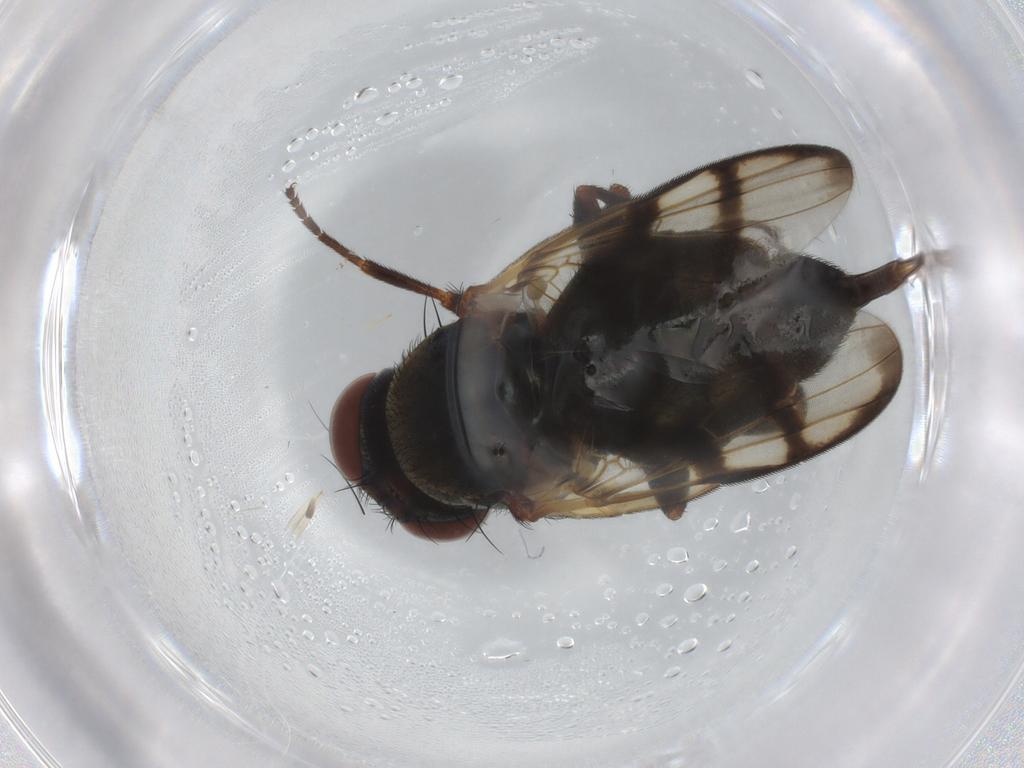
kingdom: Animalia
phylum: Arthropoda
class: Insecta
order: Diptera
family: Ulidiidae
